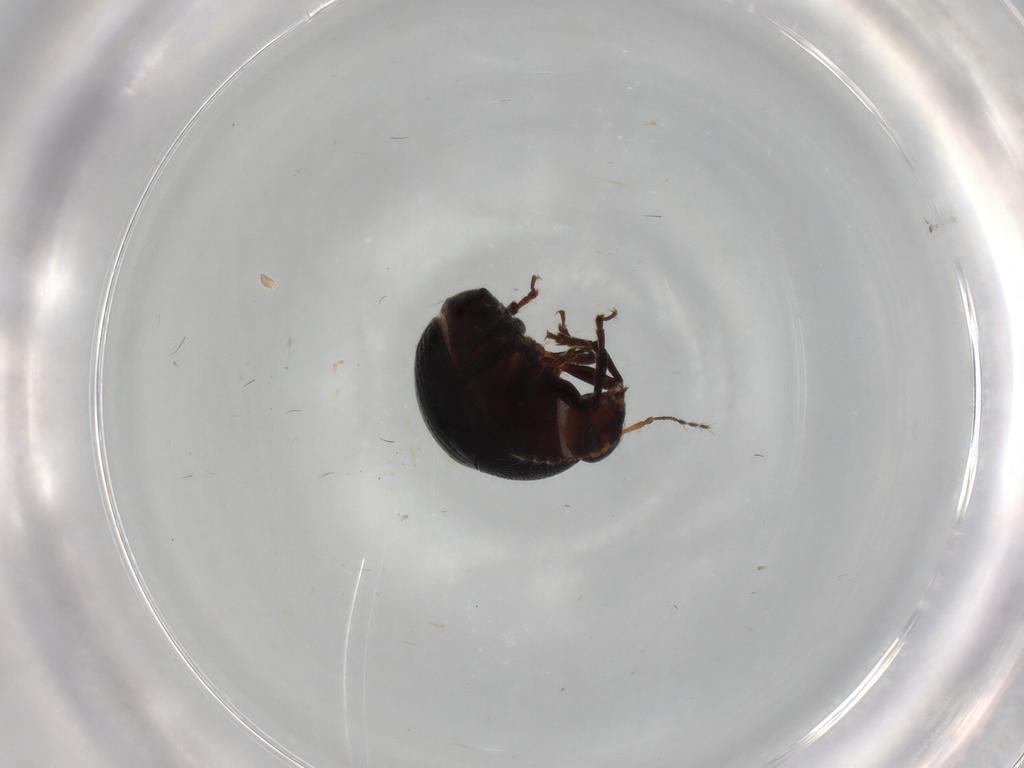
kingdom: Animalia
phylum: Arthropoda
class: Insecta
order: Coleoptera
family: Anthribidae
